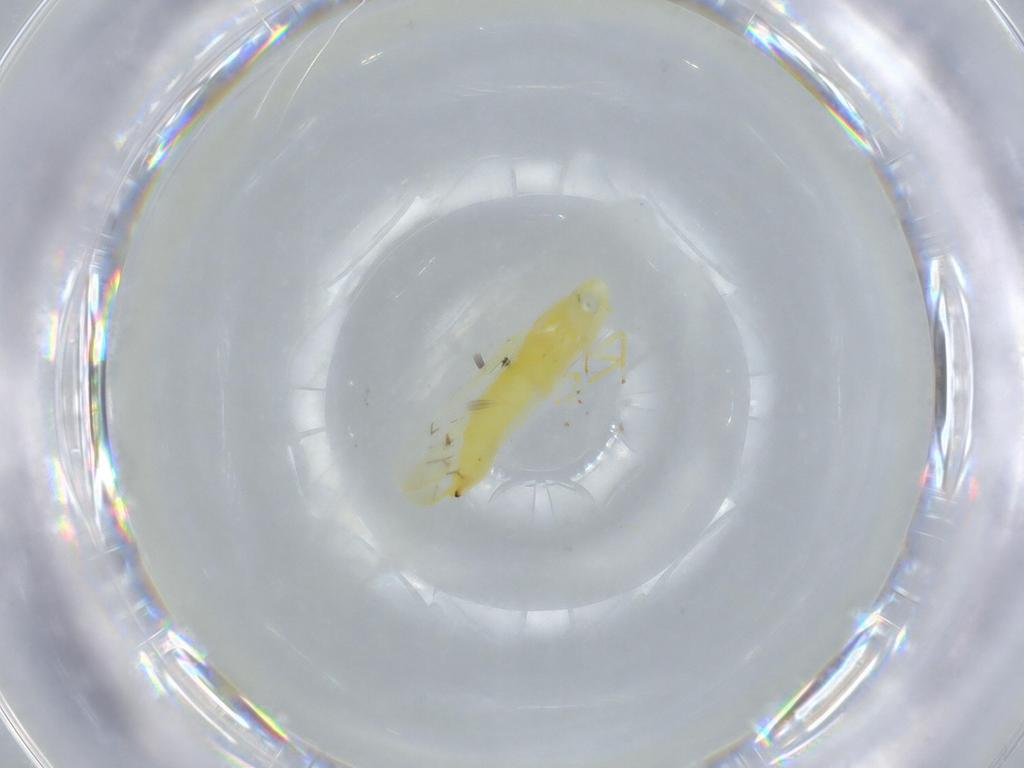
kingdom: Animalia
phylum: Arthropoda
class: Insecta
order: Hemiptera
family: Cicadellidae
